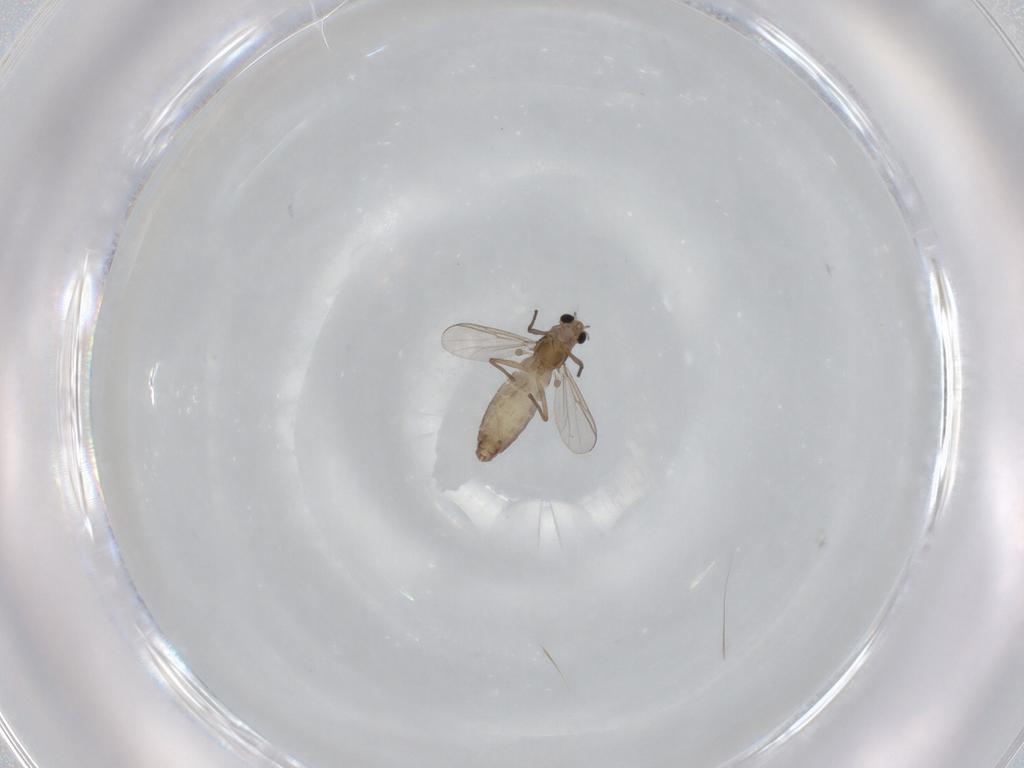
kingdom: Animalia
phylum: Arthropoda
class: Insecta
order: Diptera
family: Chironomidae
